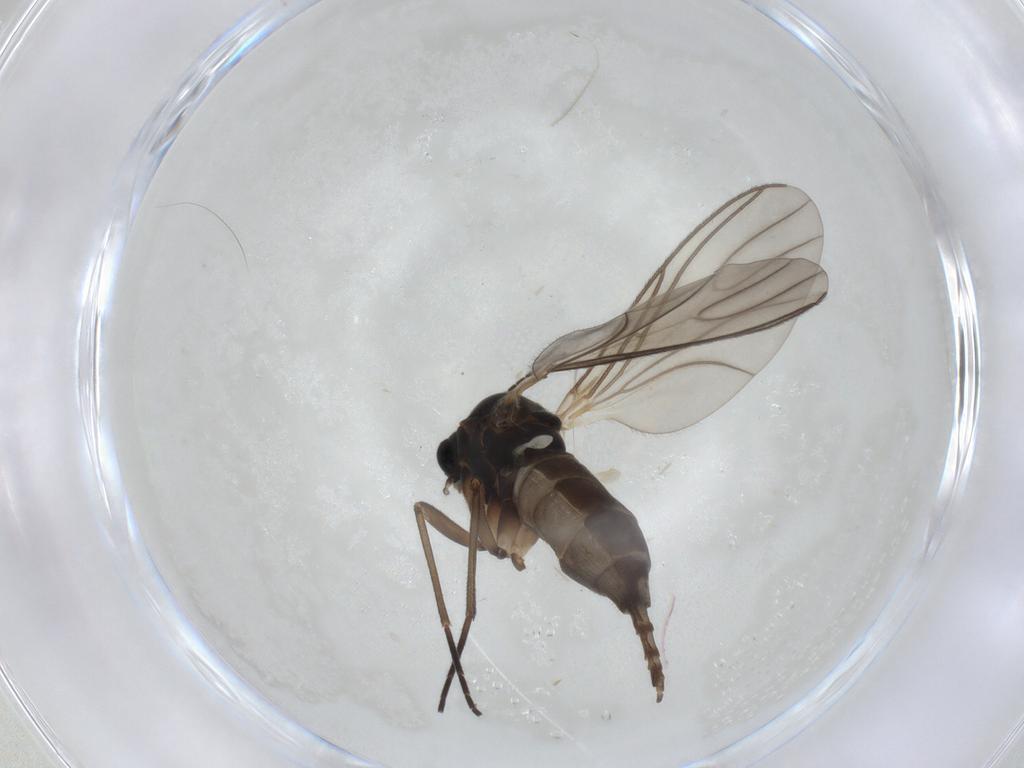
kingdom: Animalia
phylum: Arthropoda
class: Insecta
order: Diptera
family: Sciaridae
